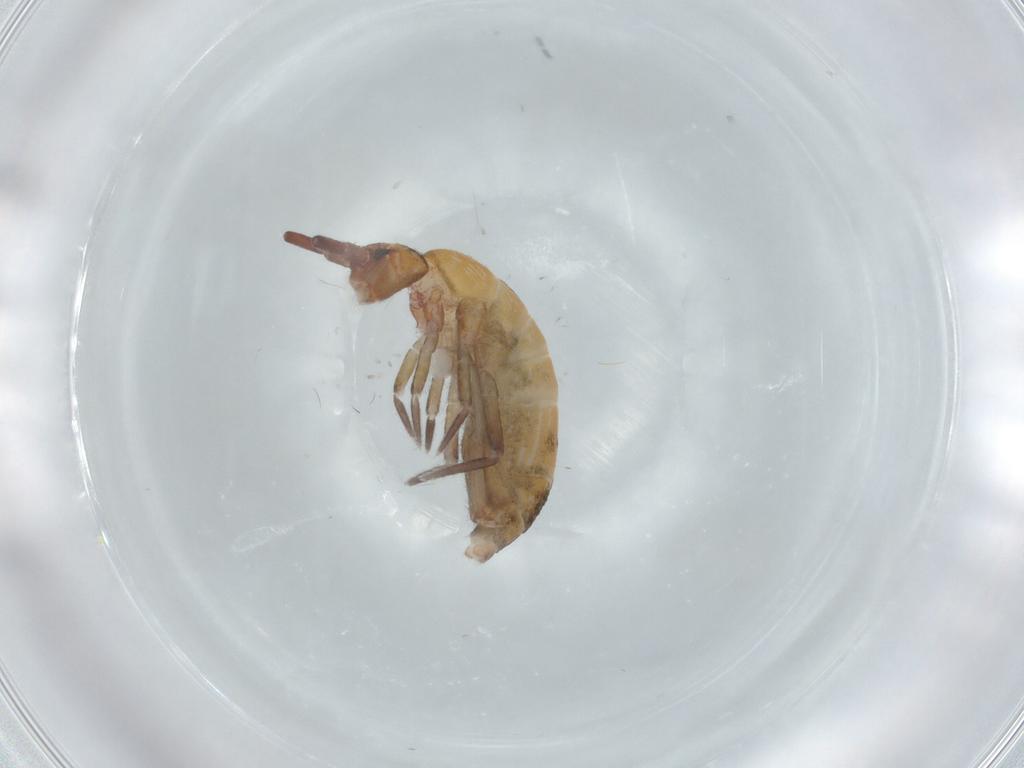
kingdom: Animalia
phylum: Arthropoda
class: Collembola
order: Entomobryomorpha
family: Tomoceridae
